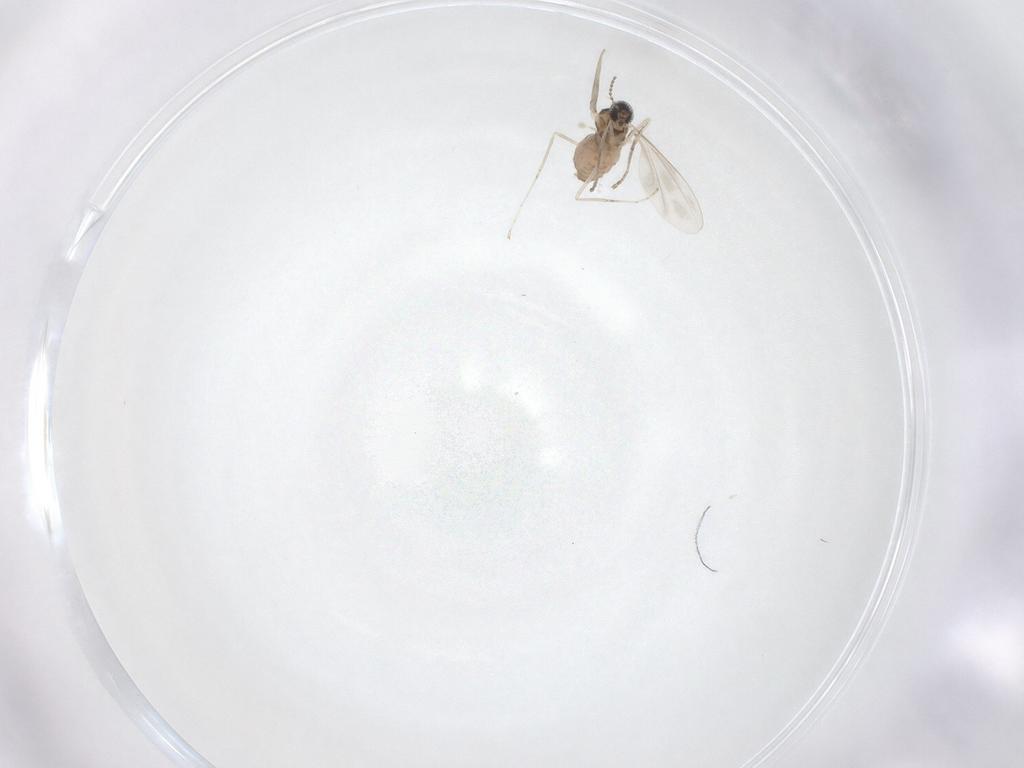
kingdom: Animalia
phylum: Arthropoda
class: Insecta
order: Diptera
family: Cecidomyiidae
